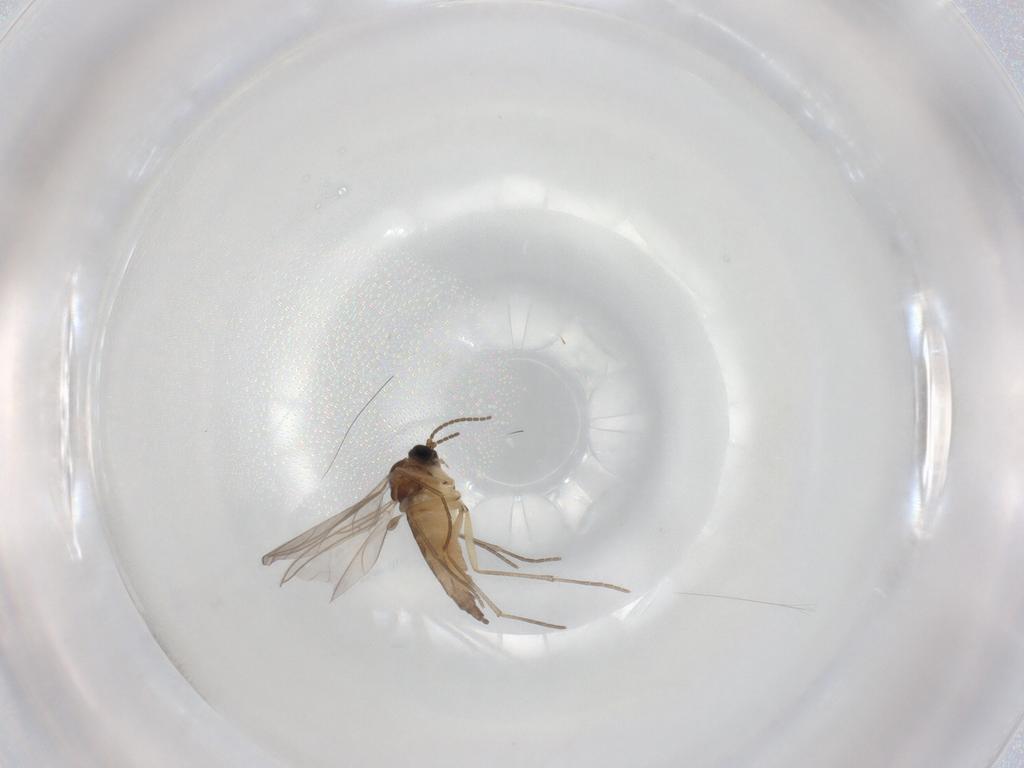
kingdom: Animalia
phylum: Arthropoda
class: Insecta
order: Diptera
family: Sciaridae
